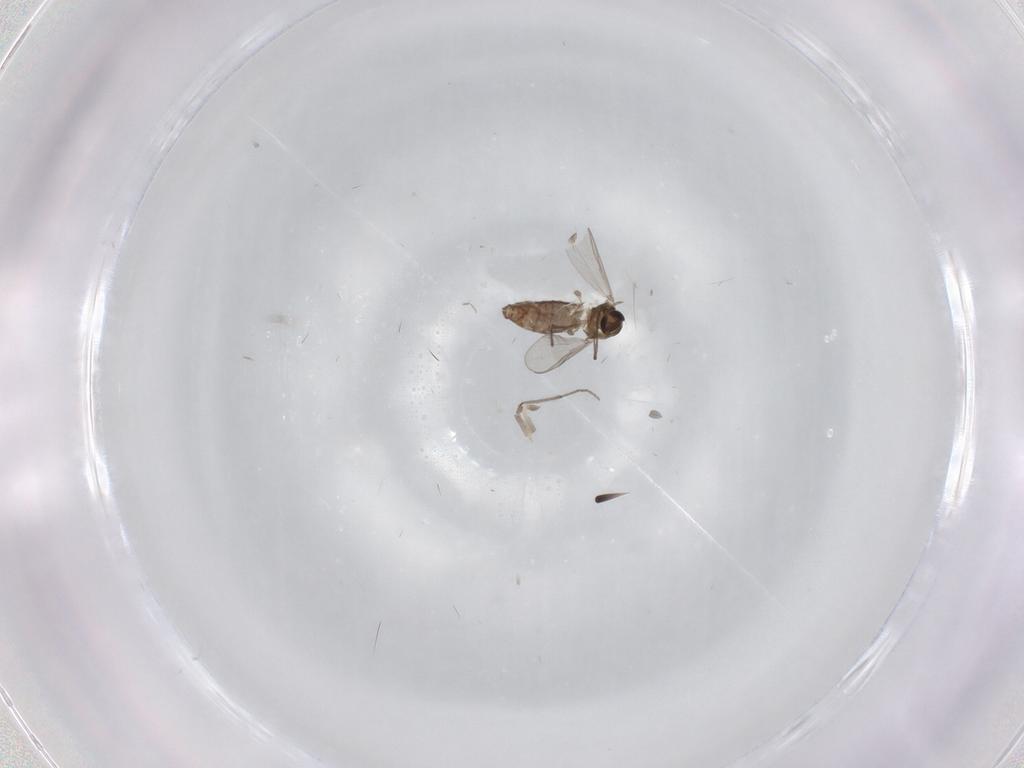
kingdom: Animalia
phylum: Arthropoda
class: Insecta
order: Diptera
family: Cecidomyiidae
